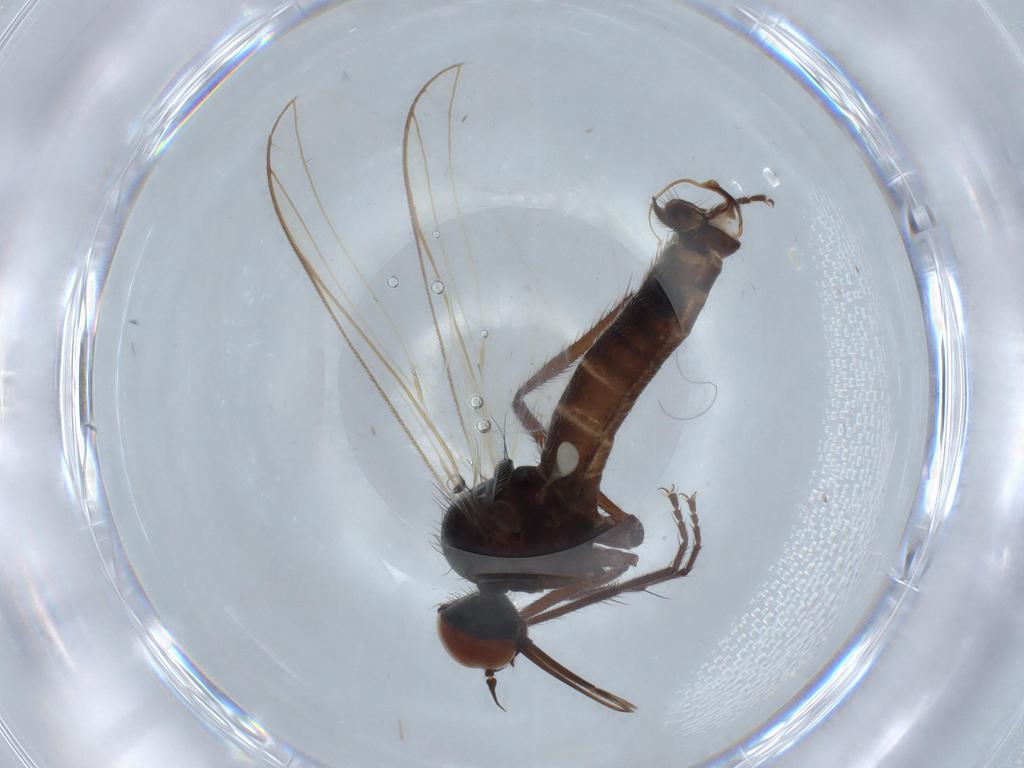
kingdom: Animalia
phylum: Arthropoda
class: Insecta
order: Diptera
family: Empididae
